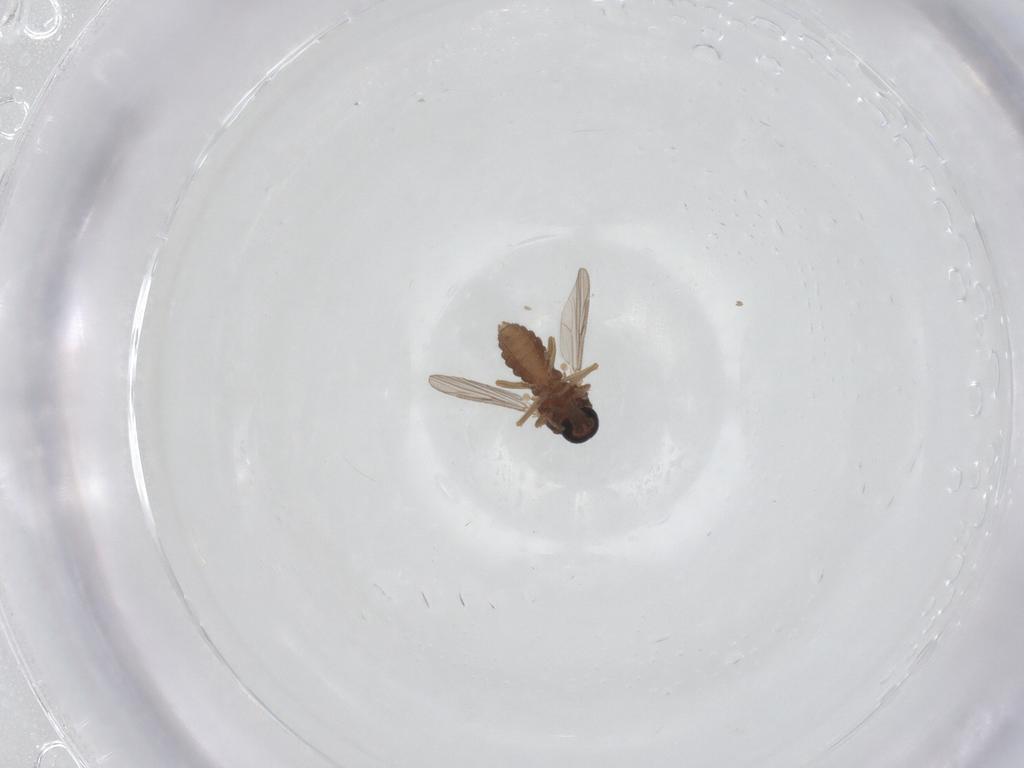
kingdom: Animalia
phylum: Arthropoda
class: Insecta
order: Diptera
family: Ceratopogonidae
